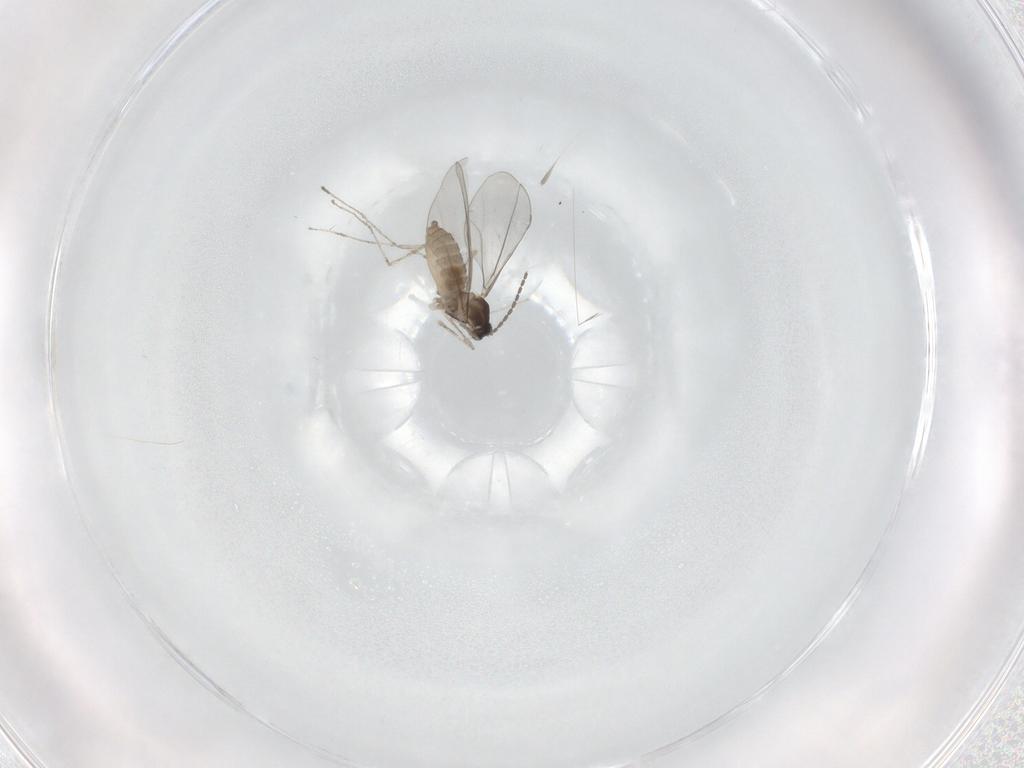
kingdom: Animalia
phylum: Arthropoda
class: Insecta
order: Diptera
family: Cecidomyiidae
